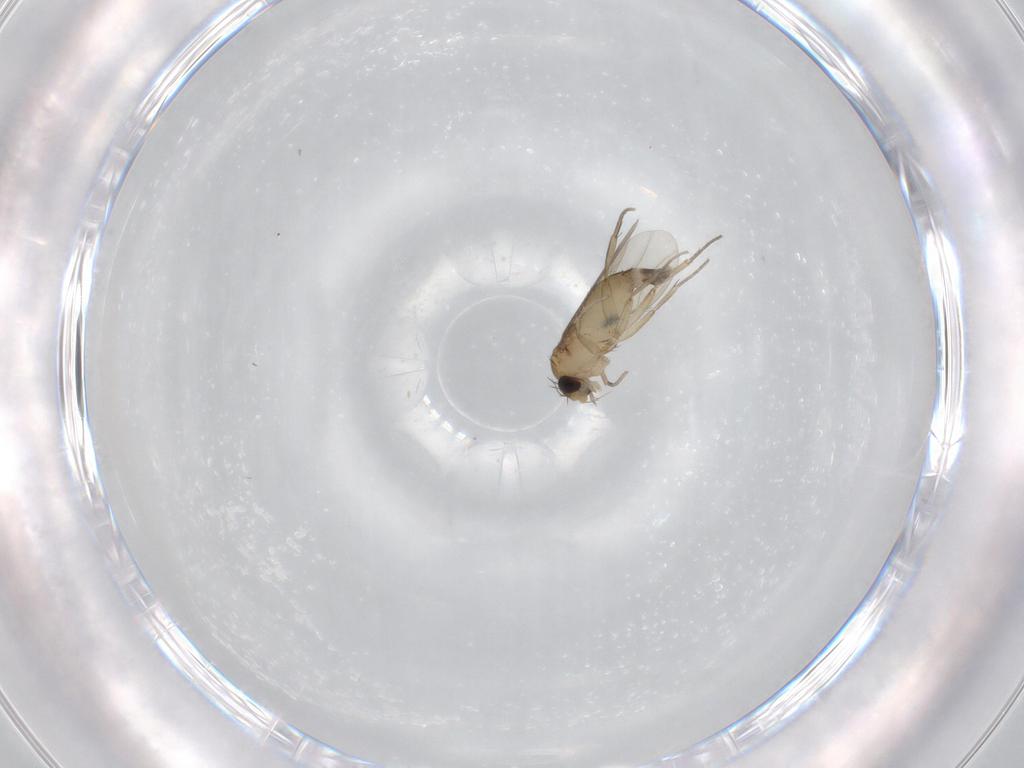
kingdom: Animalia
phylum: Arthropoda
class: Insecta
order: Diptera
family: Phoridae
